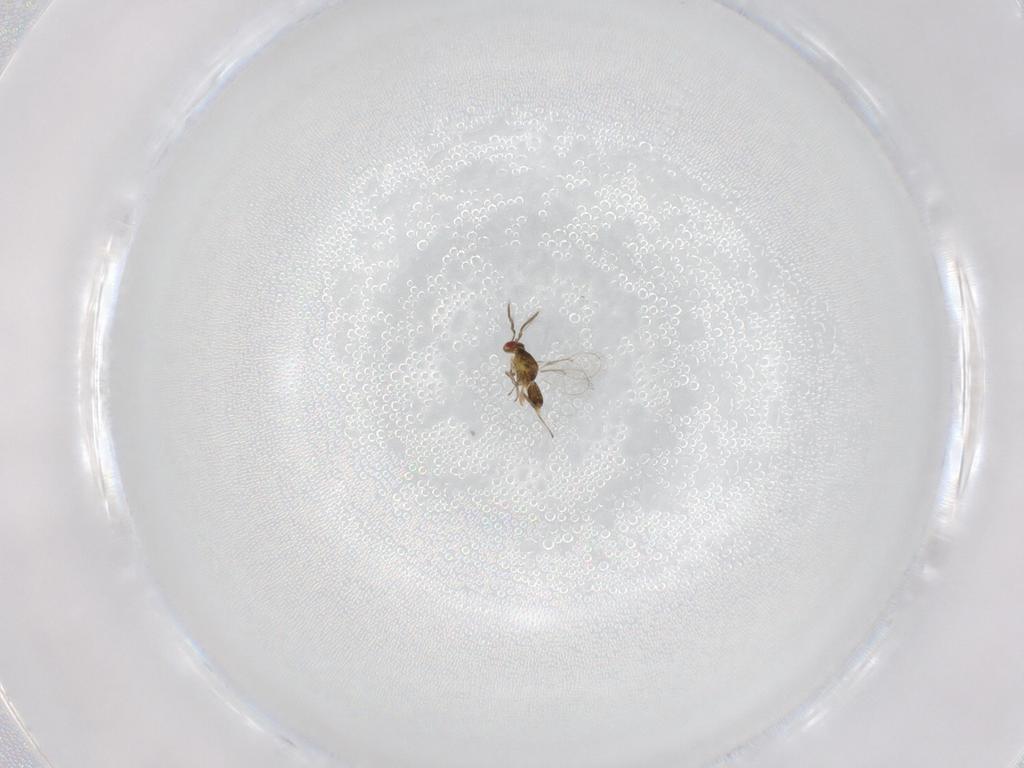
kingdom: Animalia
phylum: Arthropoda
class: Insecta
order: Hymenoptera
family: Eulophidae
